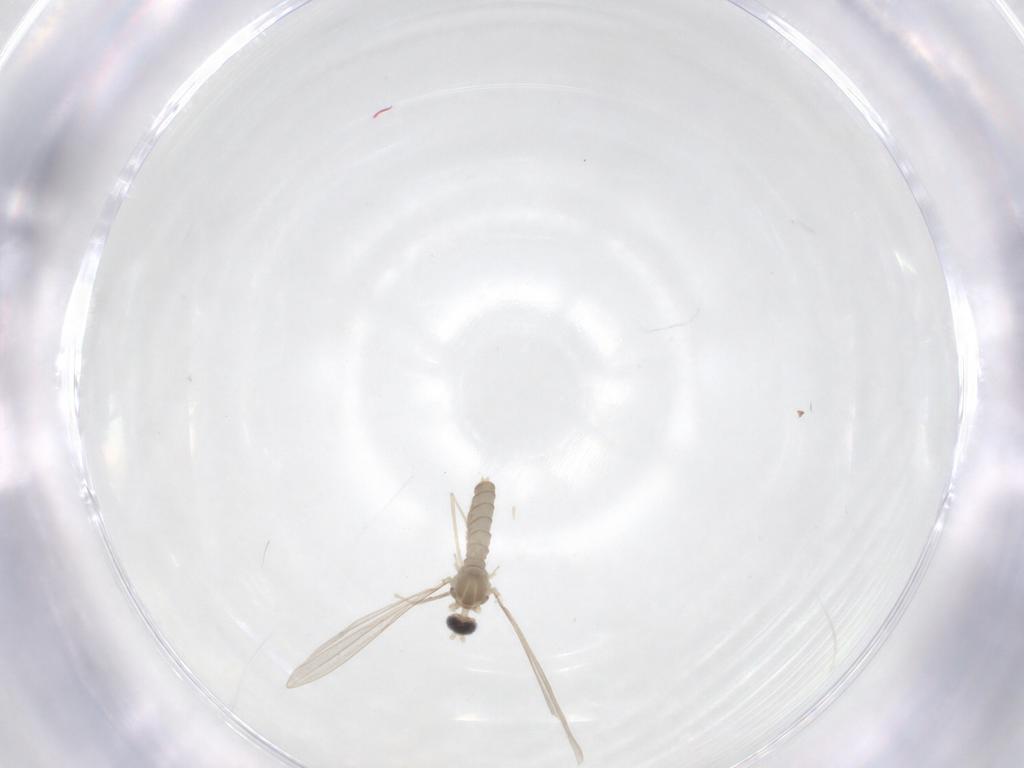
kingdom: Animalia
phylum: Arthropoda
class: Insecta
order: Diptera
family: Cecidomyiidae
